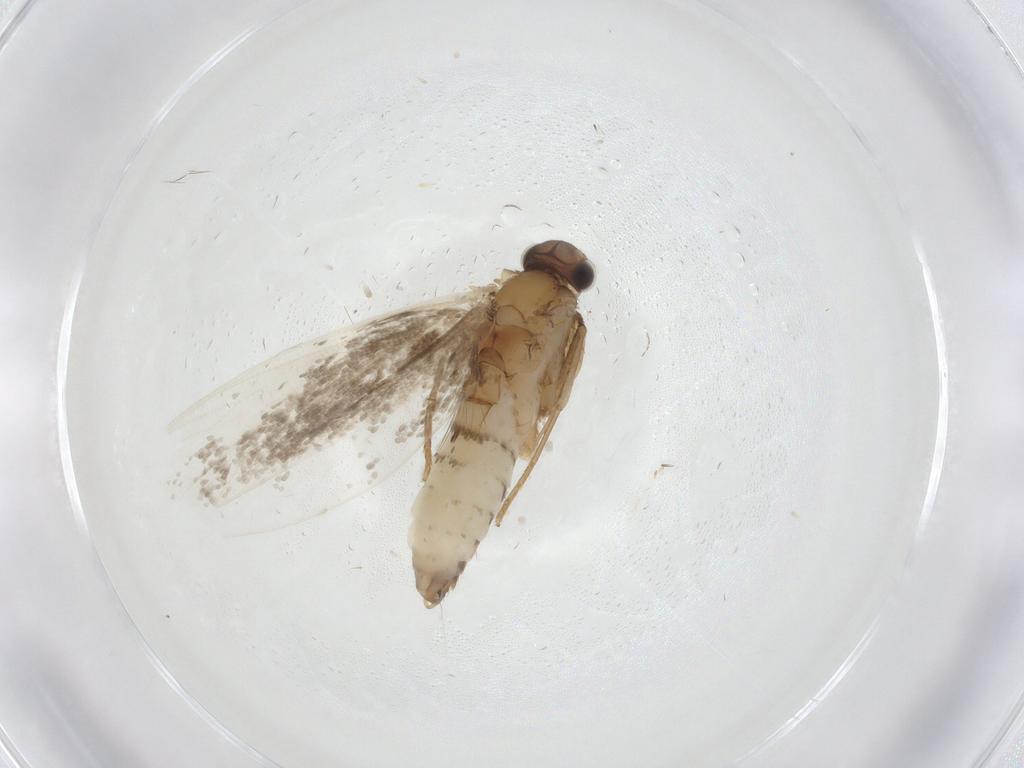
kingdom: Animalia
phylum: Arthropoda
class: Insecta
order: Lepidoptera
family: Tineidae
